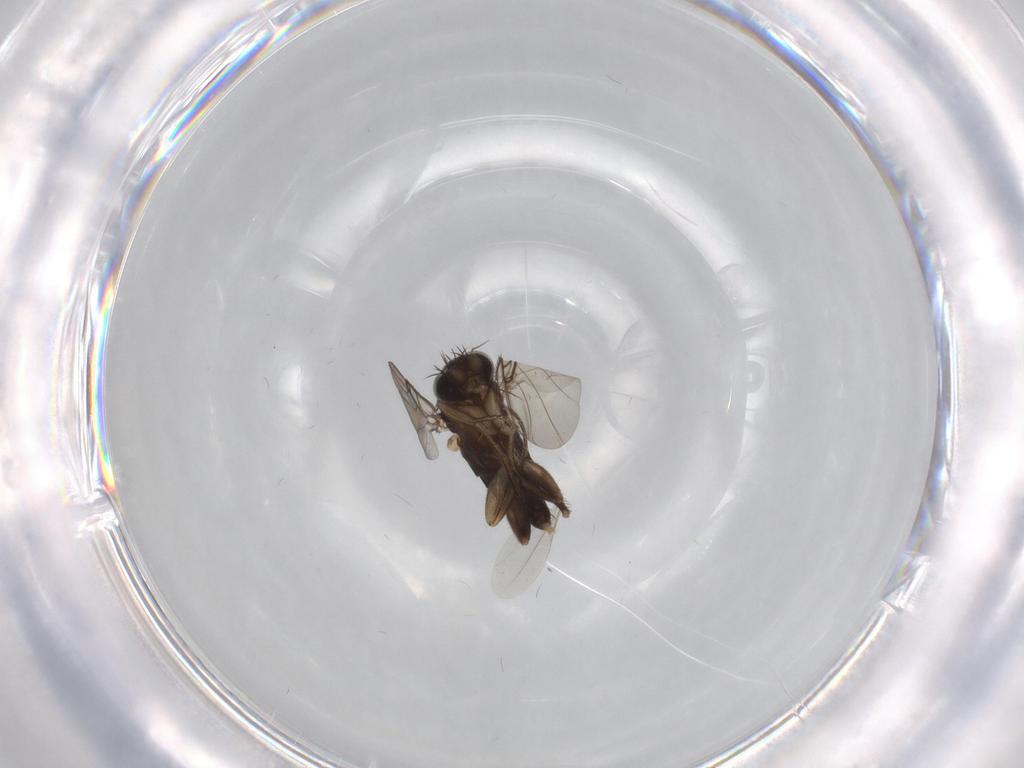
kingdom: Animalia
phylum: Arthropoda
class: Insecta
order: Diptera
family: Phoridae
